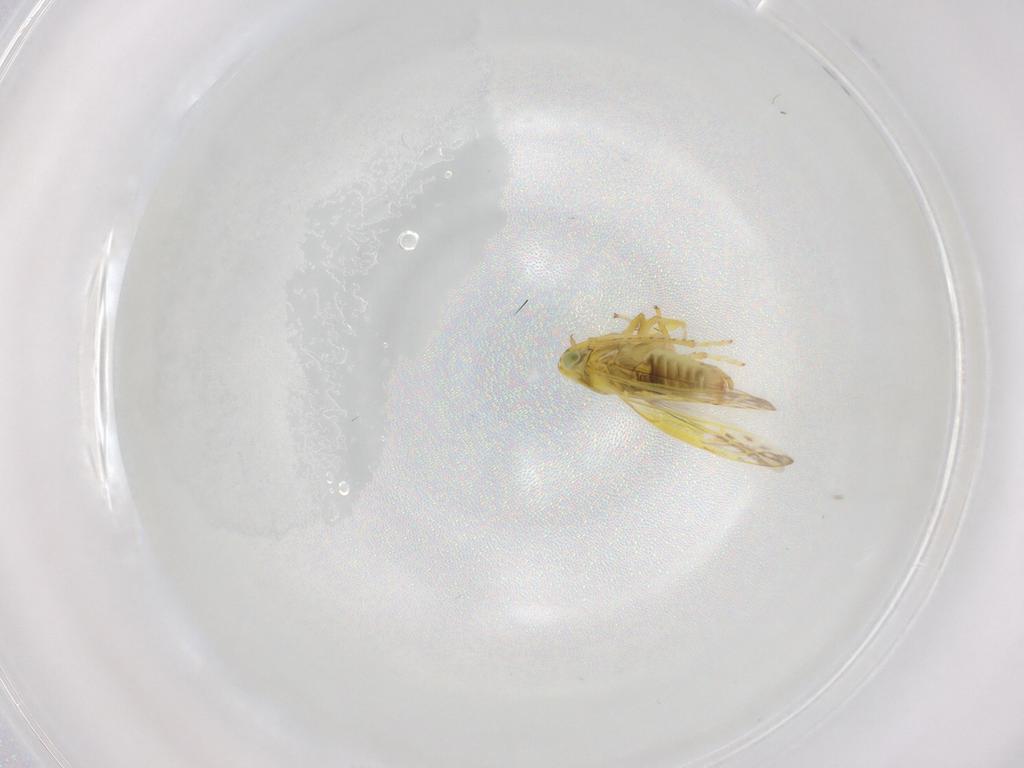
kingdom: Animalia
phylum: Arthropoda
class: Insecta
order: Hemiptera
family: Cicadellidae
